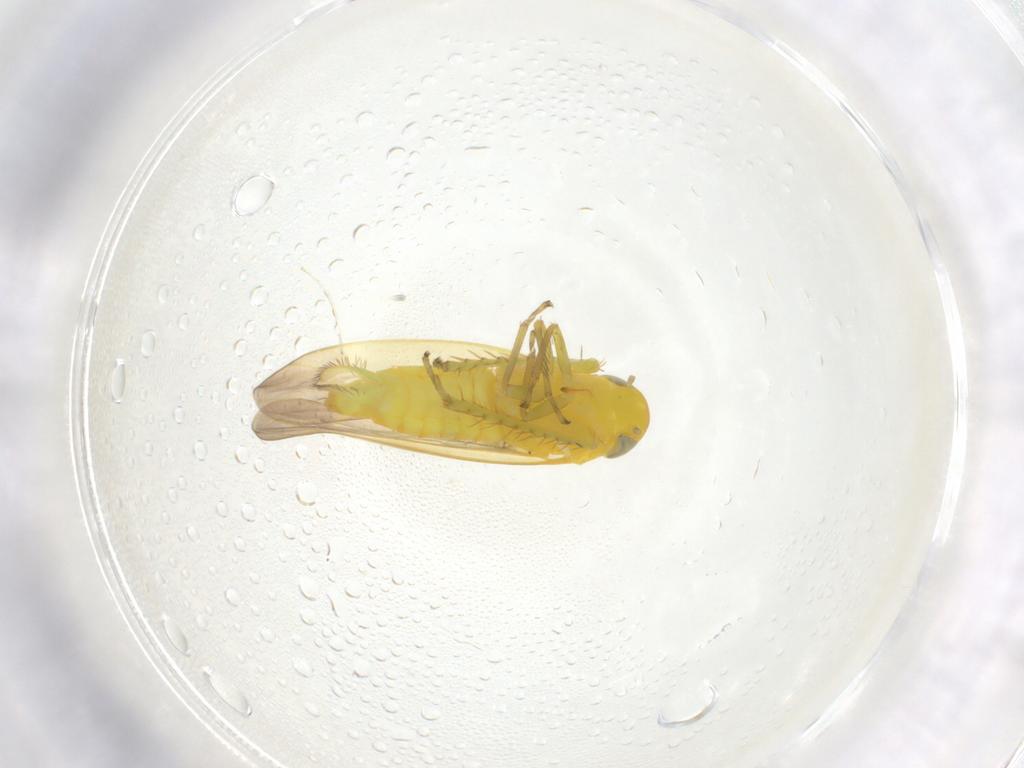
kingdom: Animalia
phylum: Arthropoda
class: Insecta
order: Hemiptera
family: Cicadellidae
